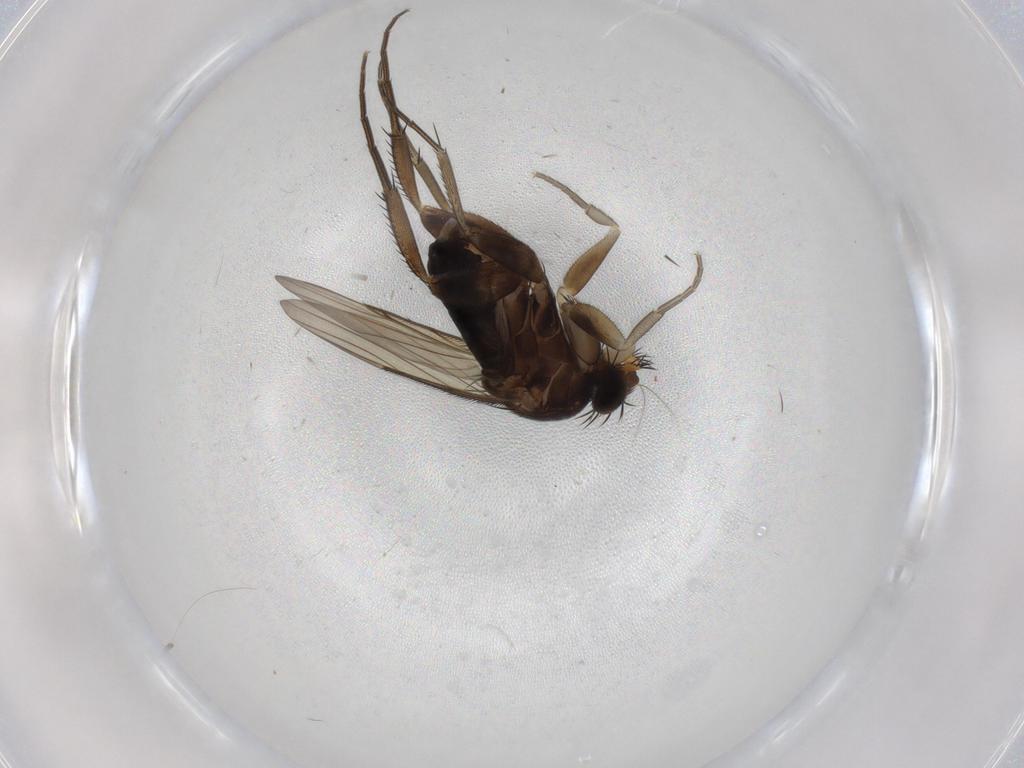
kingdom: Animalia
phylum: Arthropoda
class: Insecta
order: Diptera
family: Phoridae
